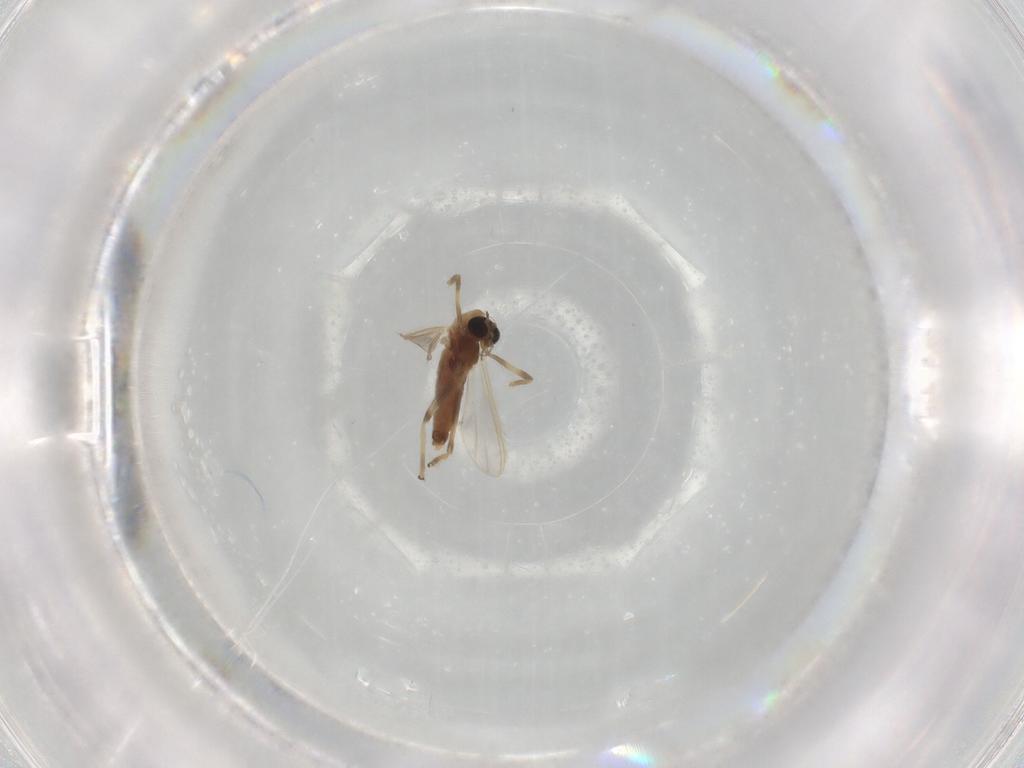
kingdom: Animalia
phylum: Arthropoda
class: Insecta
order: Diptera
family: Chironomidae
